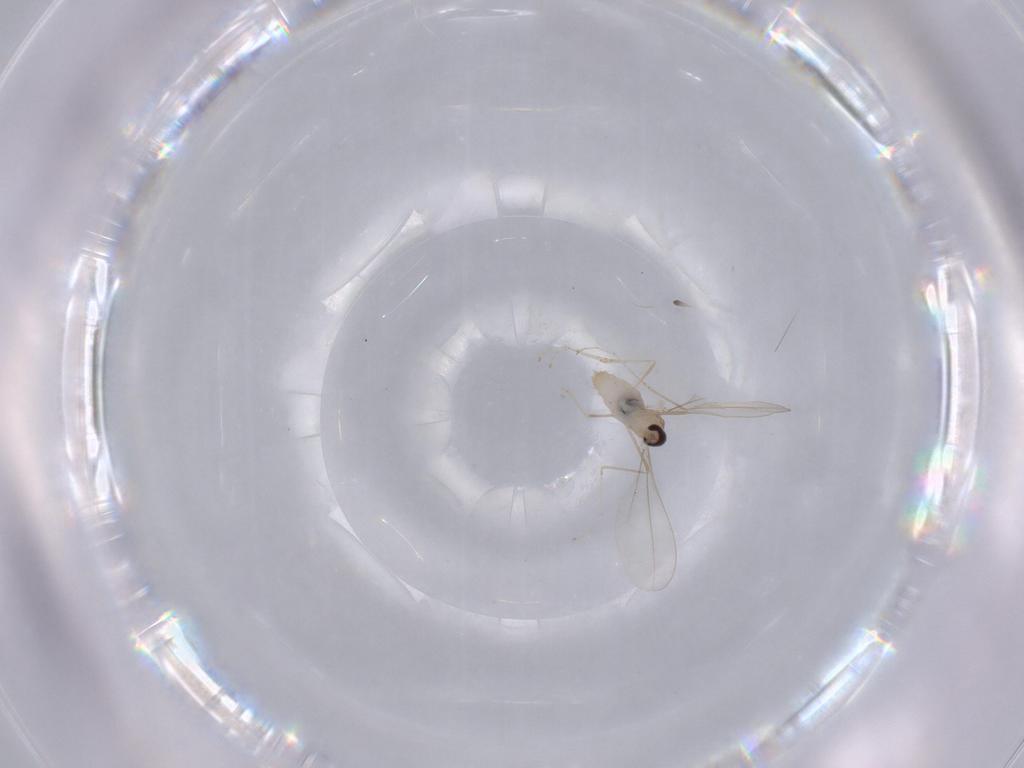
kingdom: Animalia
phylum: Arthropoda
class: Insecta
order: Diptera
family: Cecidomyiidae
